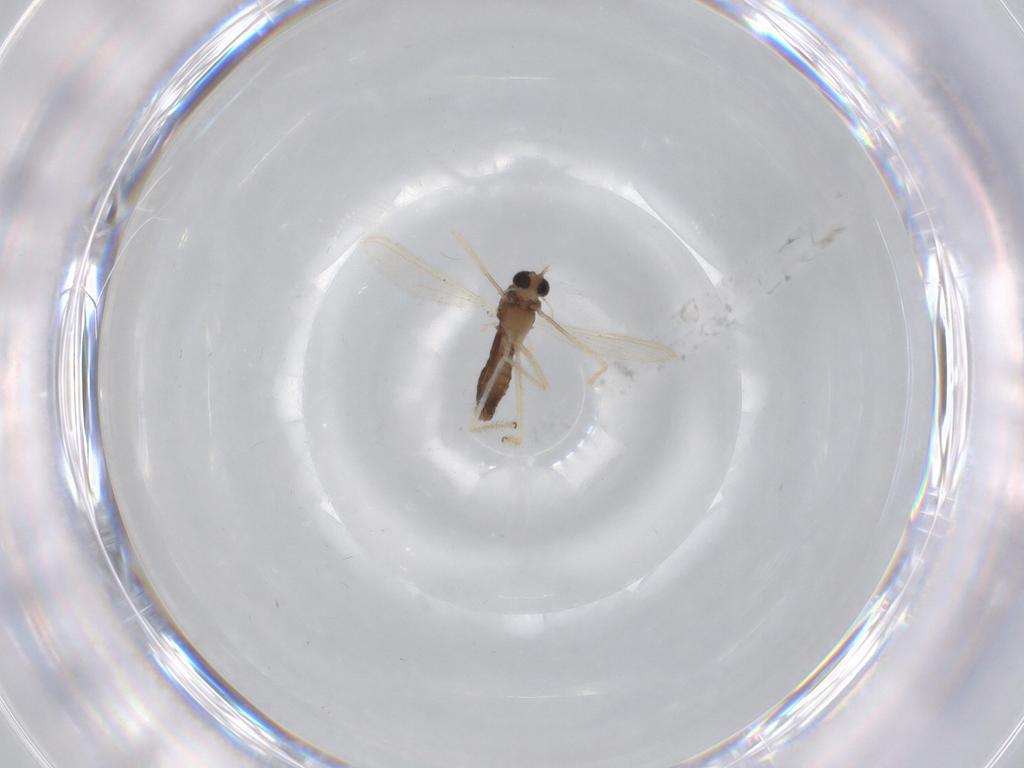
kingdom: Animalia
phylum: Arthropoda
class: Insecta
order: Diptera
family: Chironomidae
